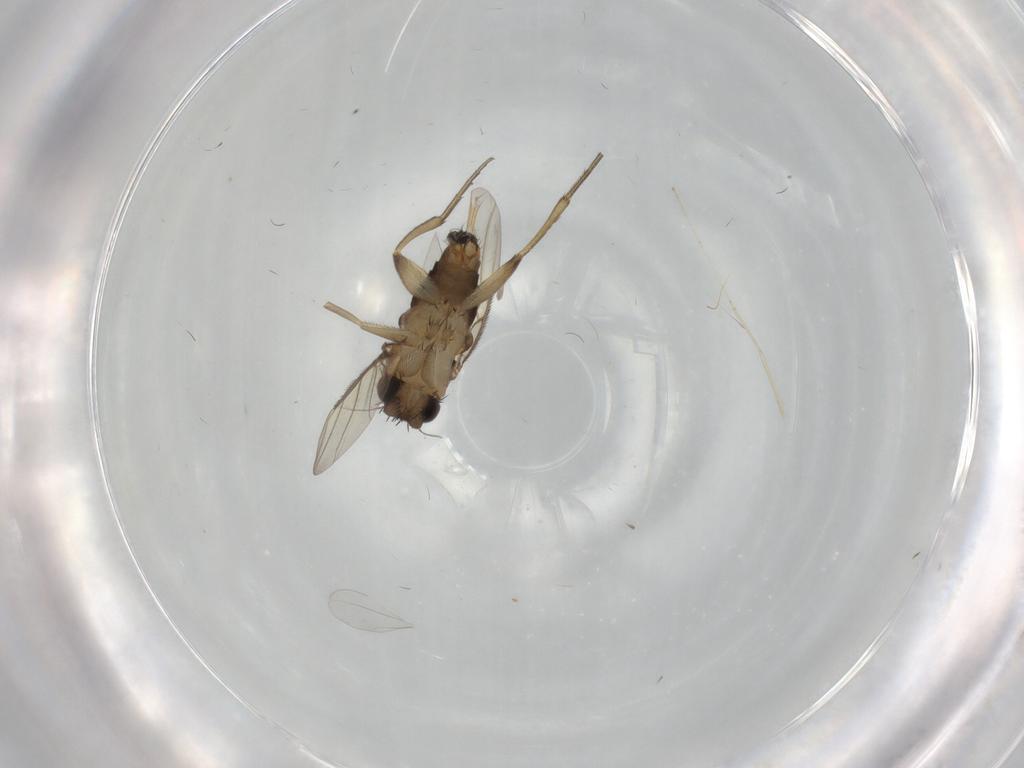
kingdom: Animalia
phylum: Arthropoda
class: Insecta
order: Diptera
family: Phoridae
